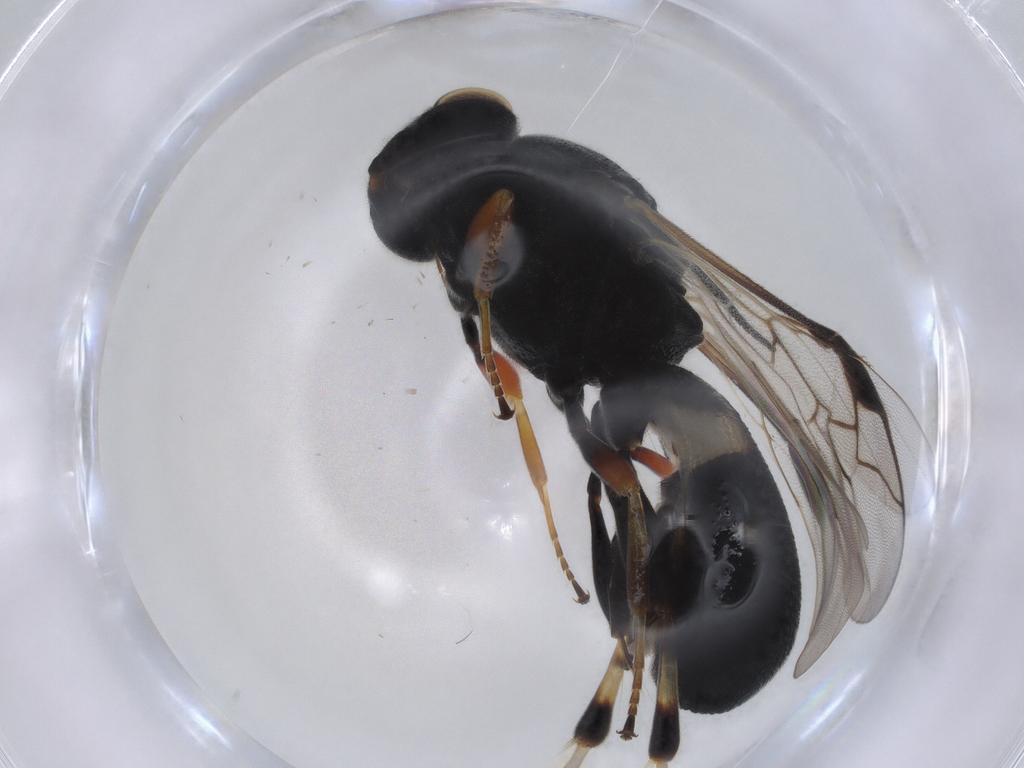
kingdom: Animalia
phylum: Arthropoda
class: Insecta
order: Hymenoptera
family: Braconidae
